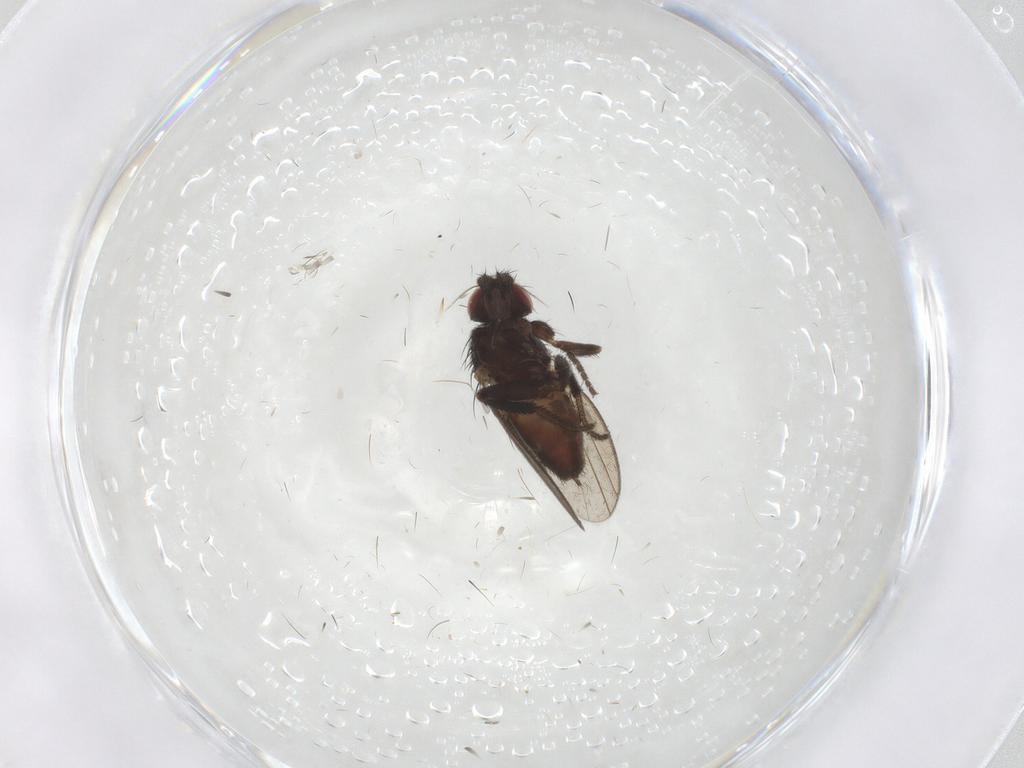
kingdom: Animalia
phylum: Arthropoda
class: Insecta
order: Diptera
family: Milichiidae
